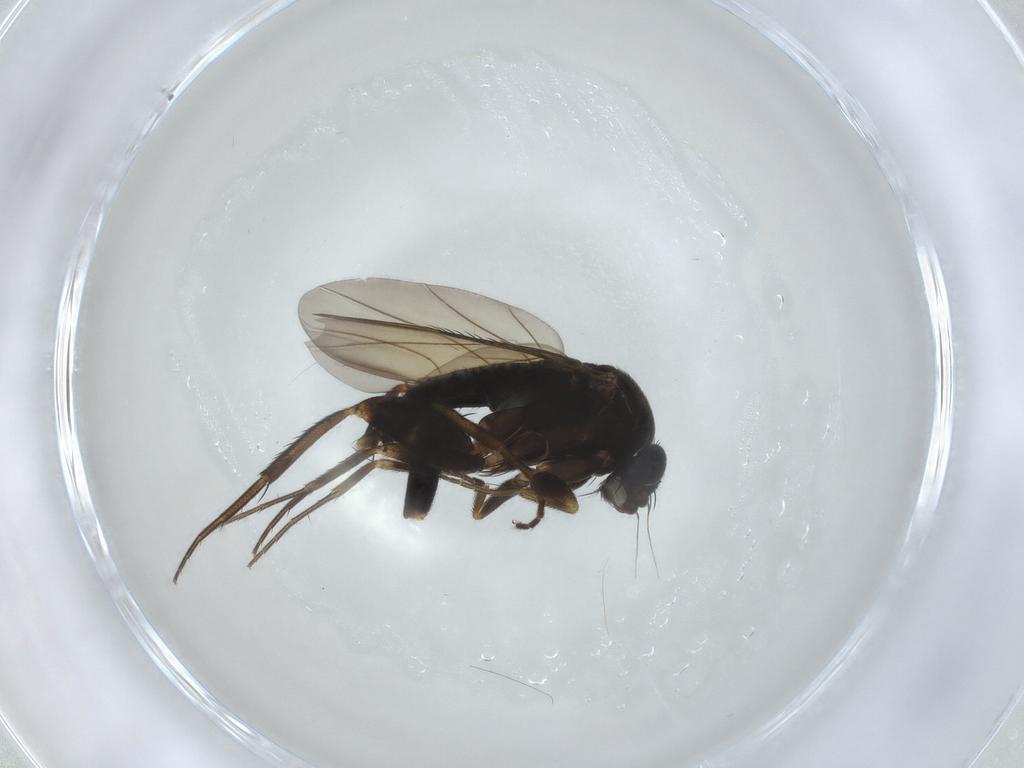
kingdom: Animalia
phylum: Arthropoda
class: Insecta
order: Diptera
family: Phoridae
